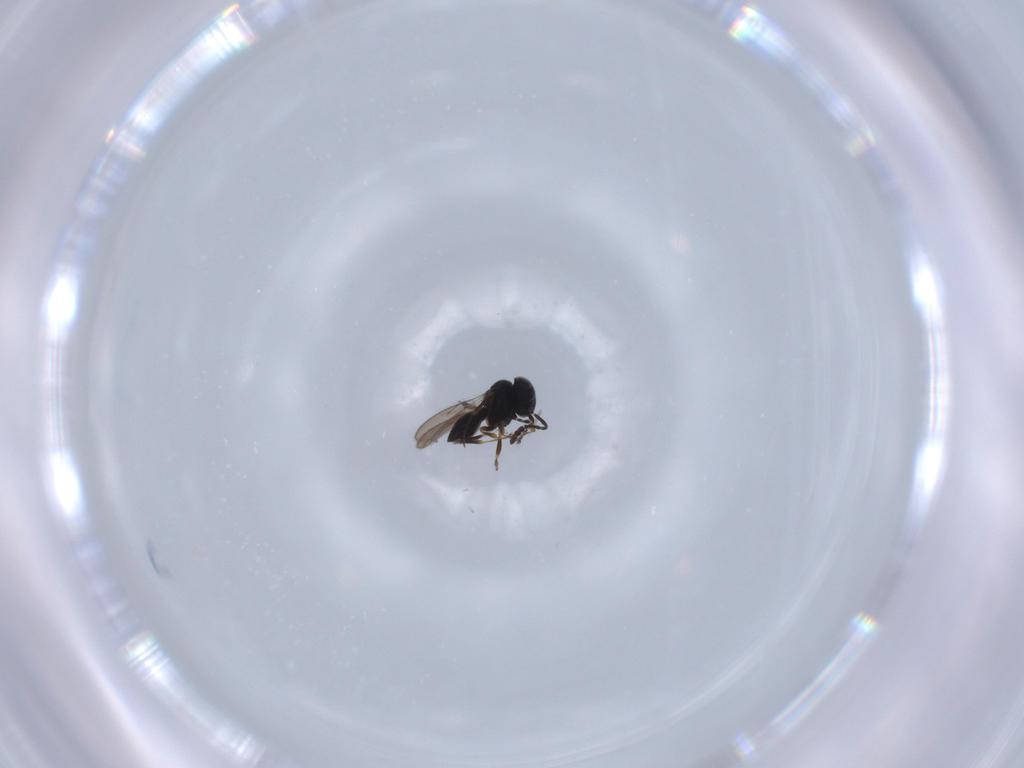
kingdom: Animalia
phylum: Arthropoda
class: Insecta
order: Hymenoptera
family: Scelionidae
